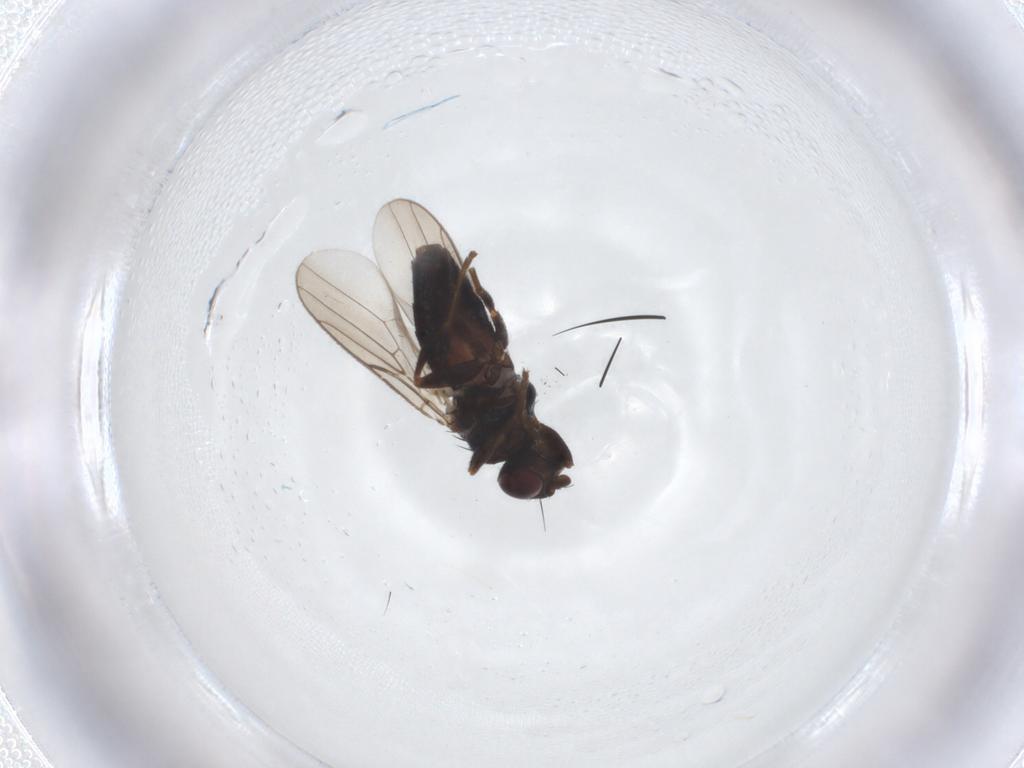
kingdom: Animalia
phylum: Arthropoda
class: Insecta
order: Diptera
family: Chloropidae
